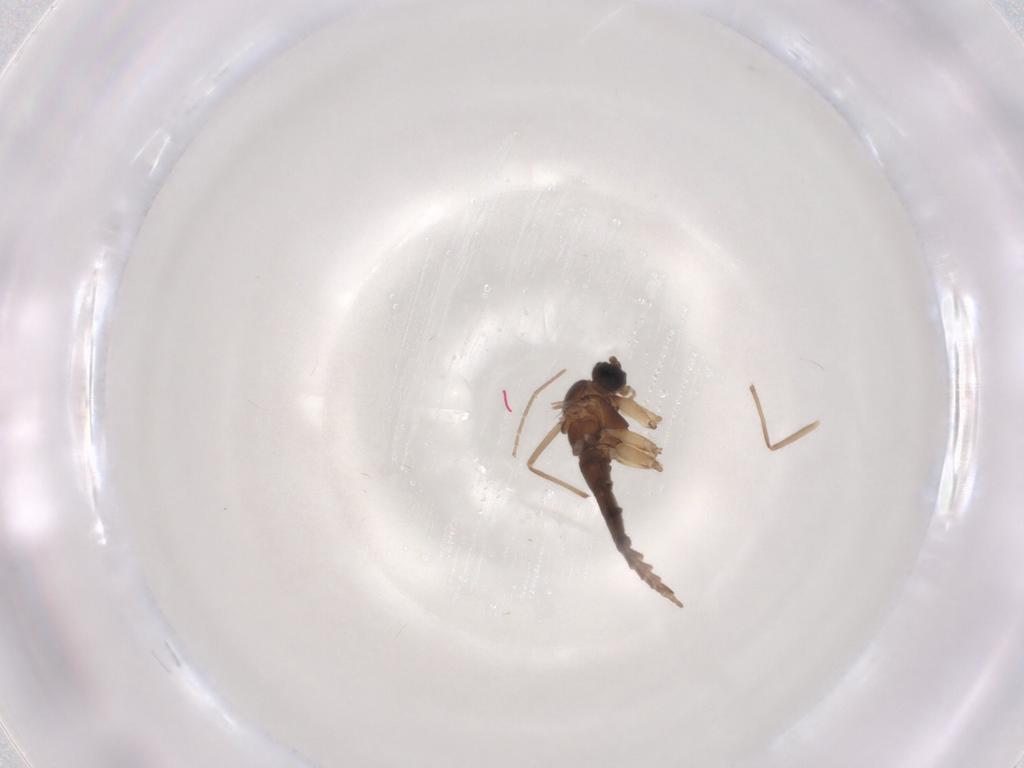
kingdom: Animalia
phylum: Arthropoda
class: Insecta
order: Diptera
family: Sciaridae
